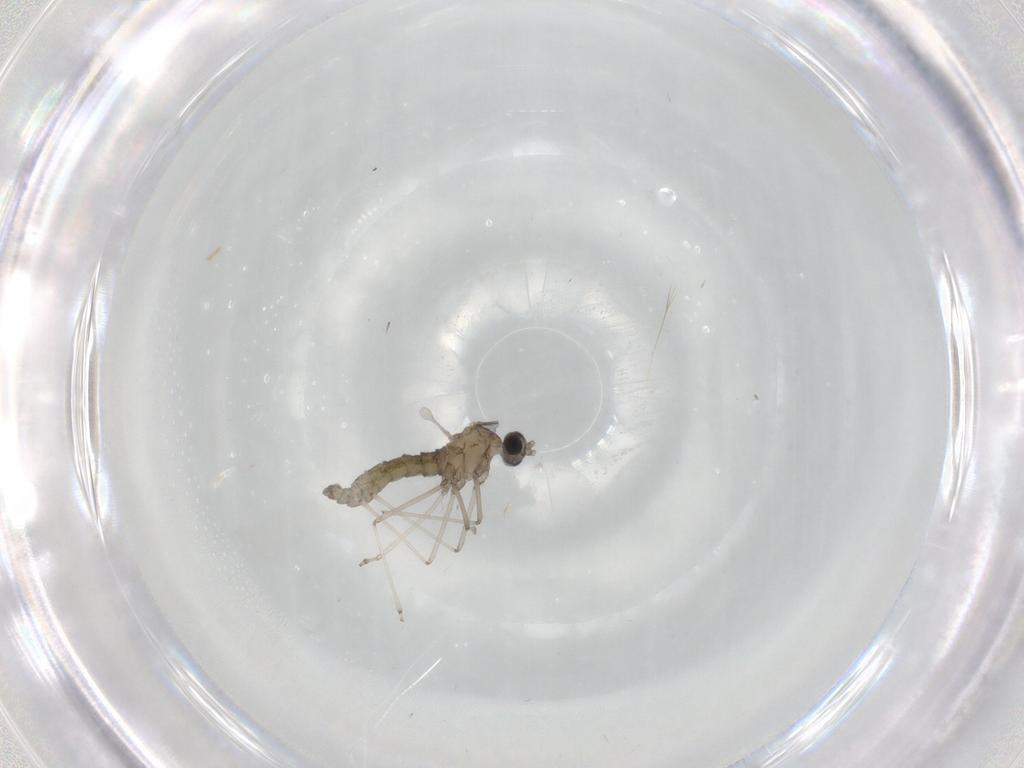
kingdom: Animalia
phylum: Arthropoda
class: Insecta
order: Diptera
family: Cecidomyiidae
